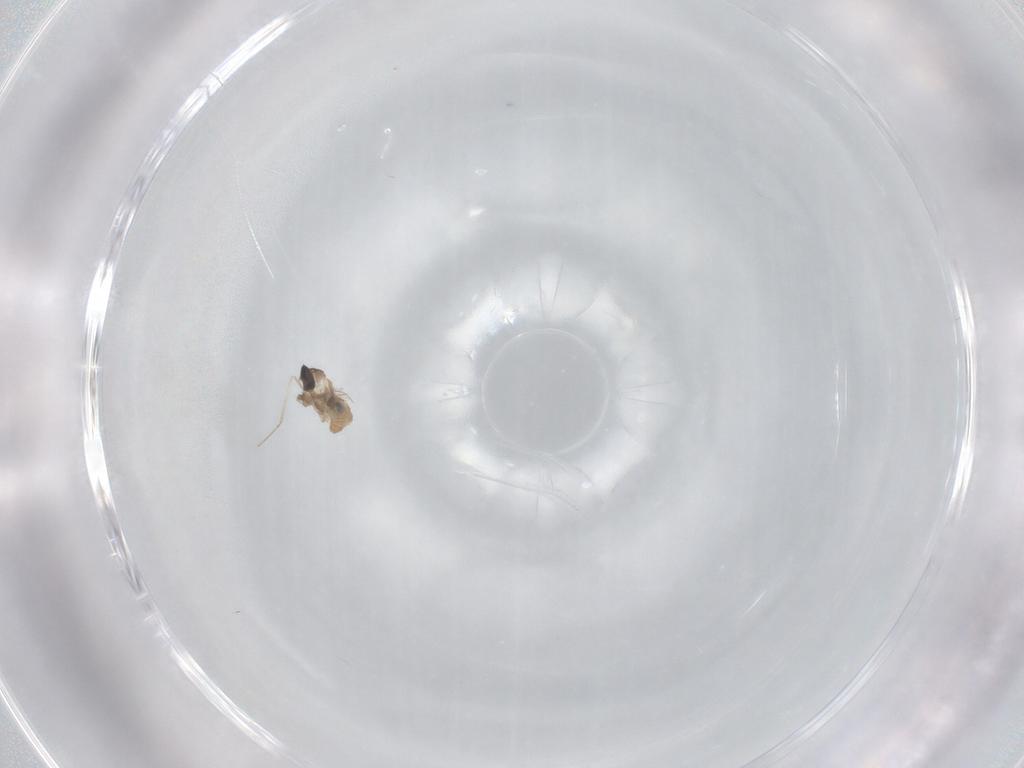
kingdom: Animalia
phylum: Arthropoda
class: Insecta
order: Diptera
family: Cecidomyiidae
